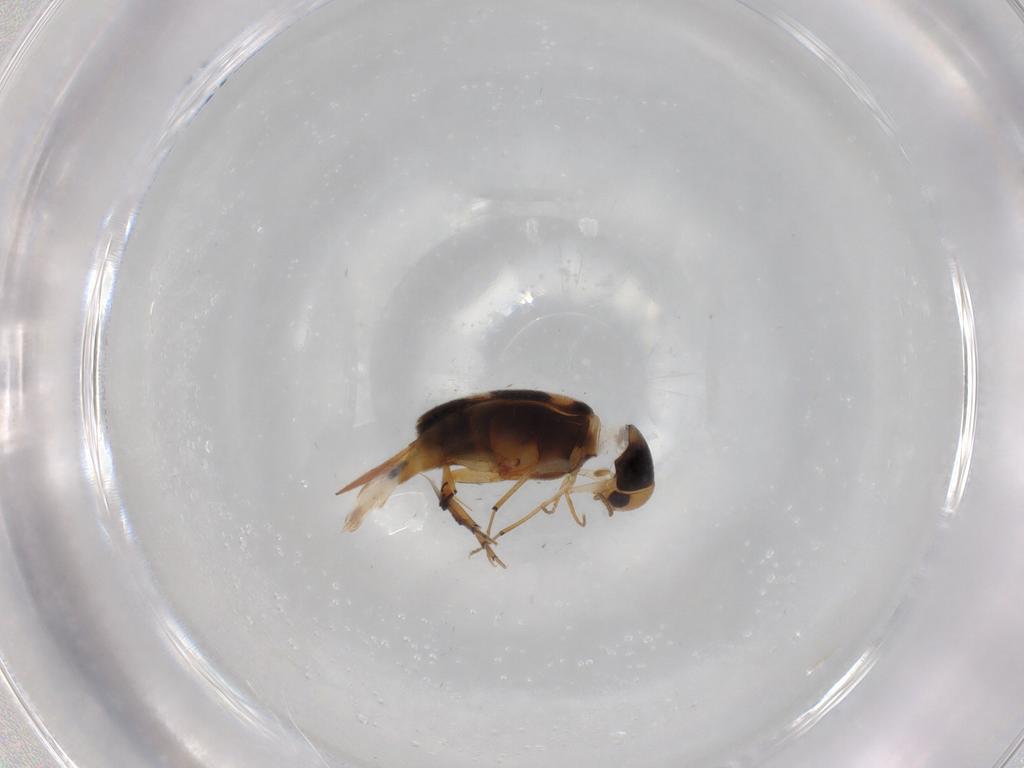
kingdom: Animalia
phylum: Arthropoda
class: Insecta
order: Coleoptera
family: Mordellidae
